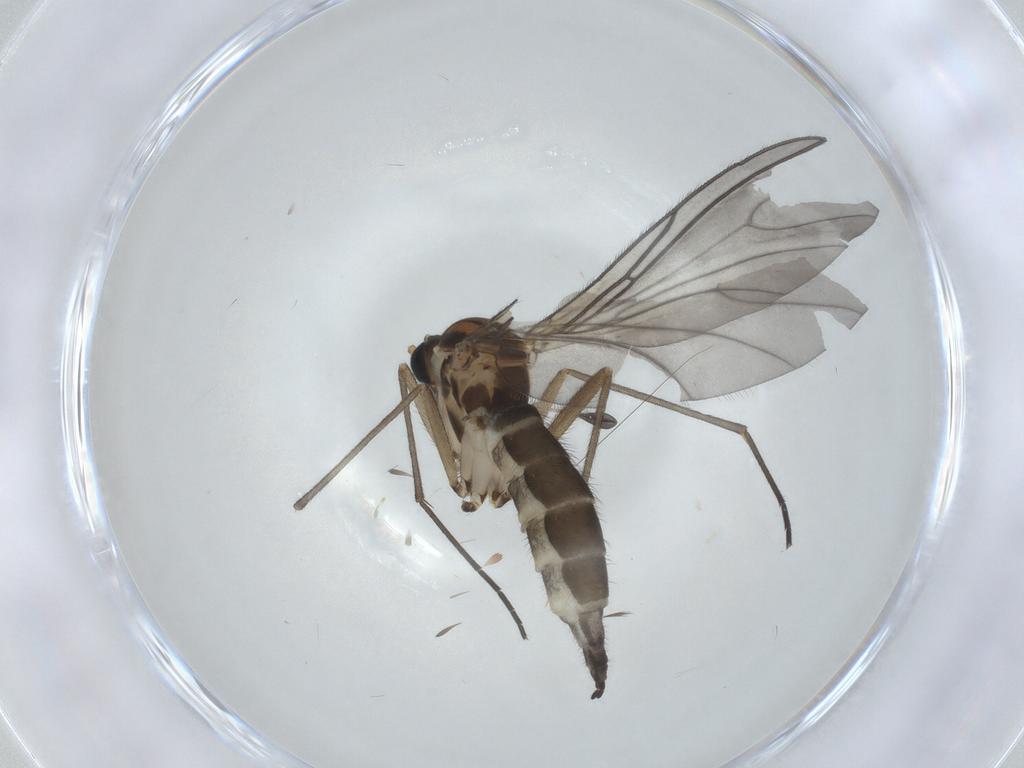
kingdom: Animalia
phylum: Arthropoda
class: Insecta
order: Diptera
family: Sciaridae
